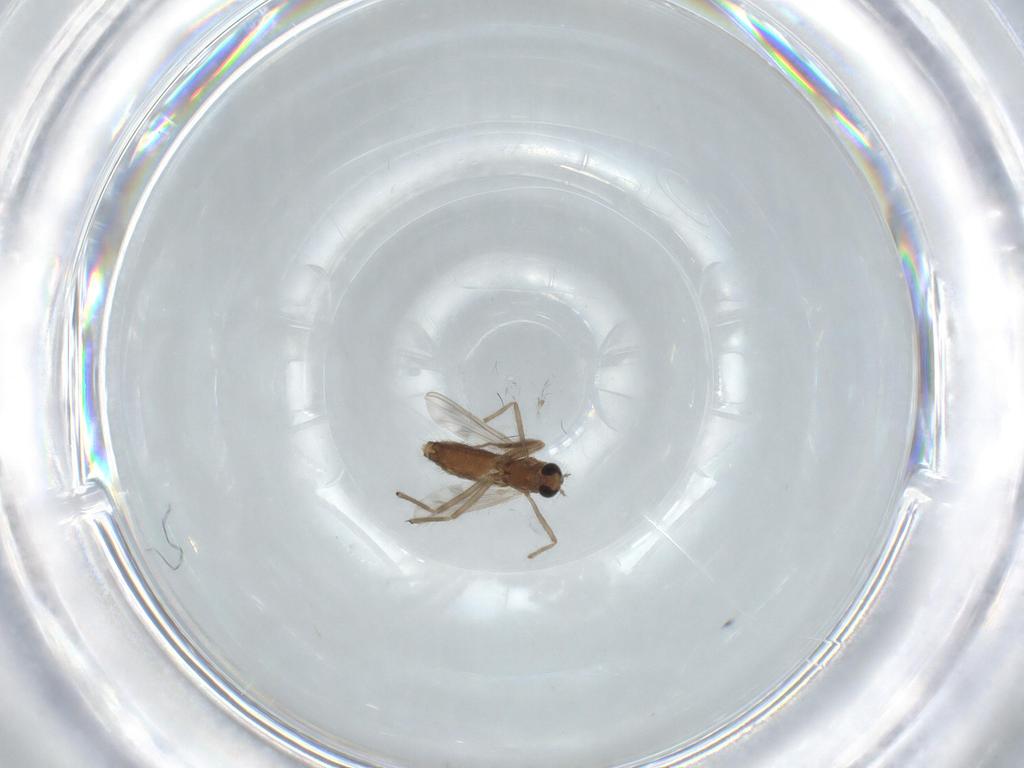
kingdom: Animalia
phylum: Arthropoda
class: Insecta
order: Diptera
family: Chironomidae
